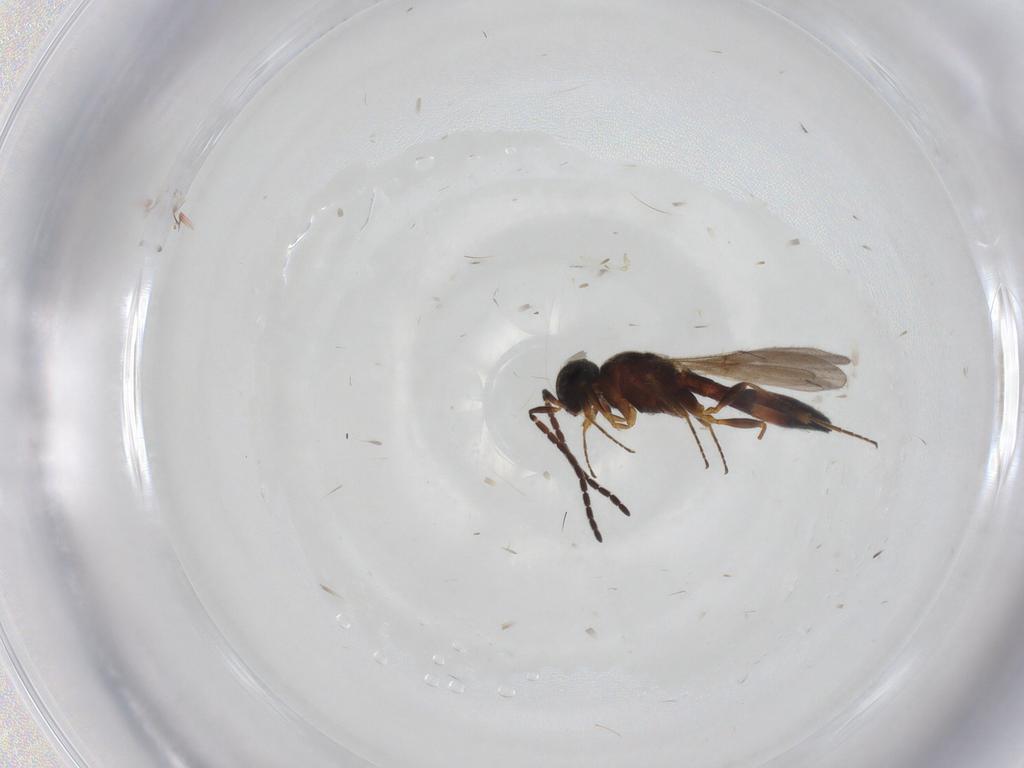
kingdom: Animalia
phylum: Arthropoda
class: Insecta
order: Hymenoptera
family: Scelionidae
